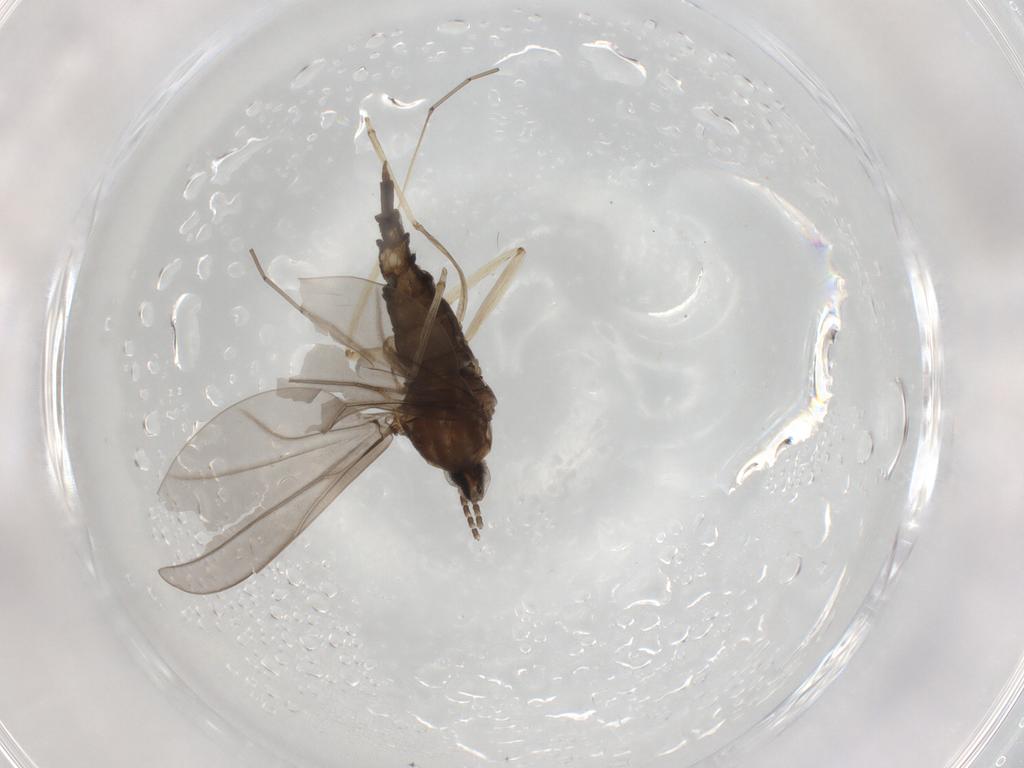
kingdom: Animalia
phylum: Arthropoda
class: Insecta
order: Diptera
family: Cecidomyiidae
